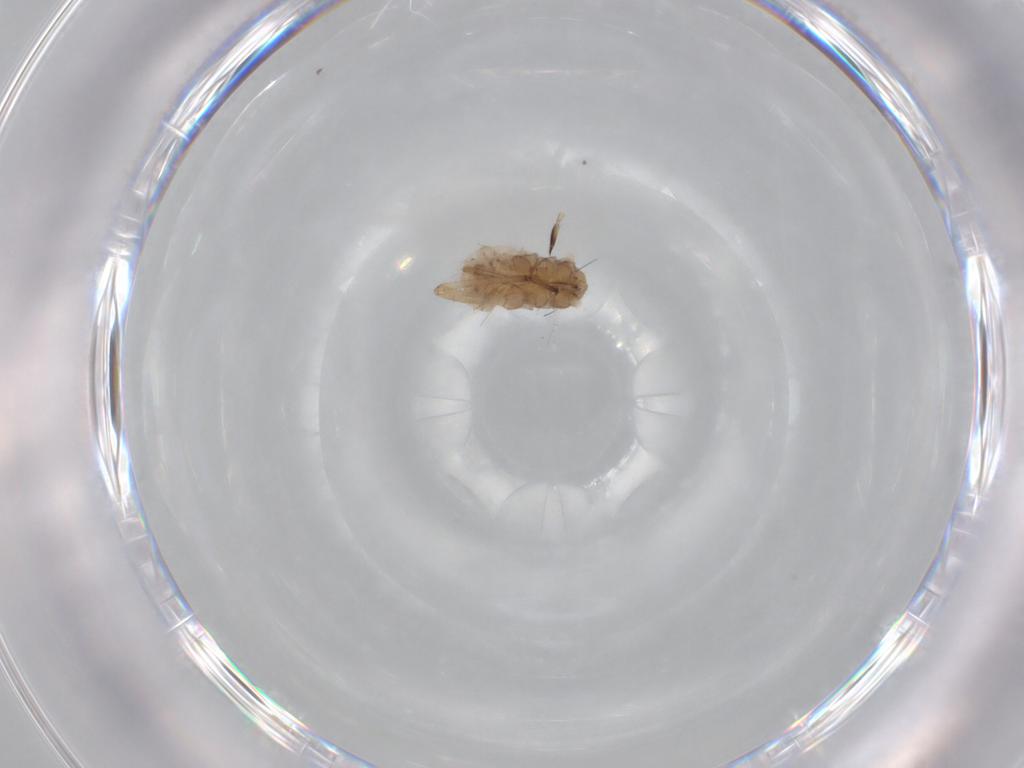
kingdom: Animalia
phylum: Arthropoda
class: Insecta
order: Hemiptera
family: Aphididae
